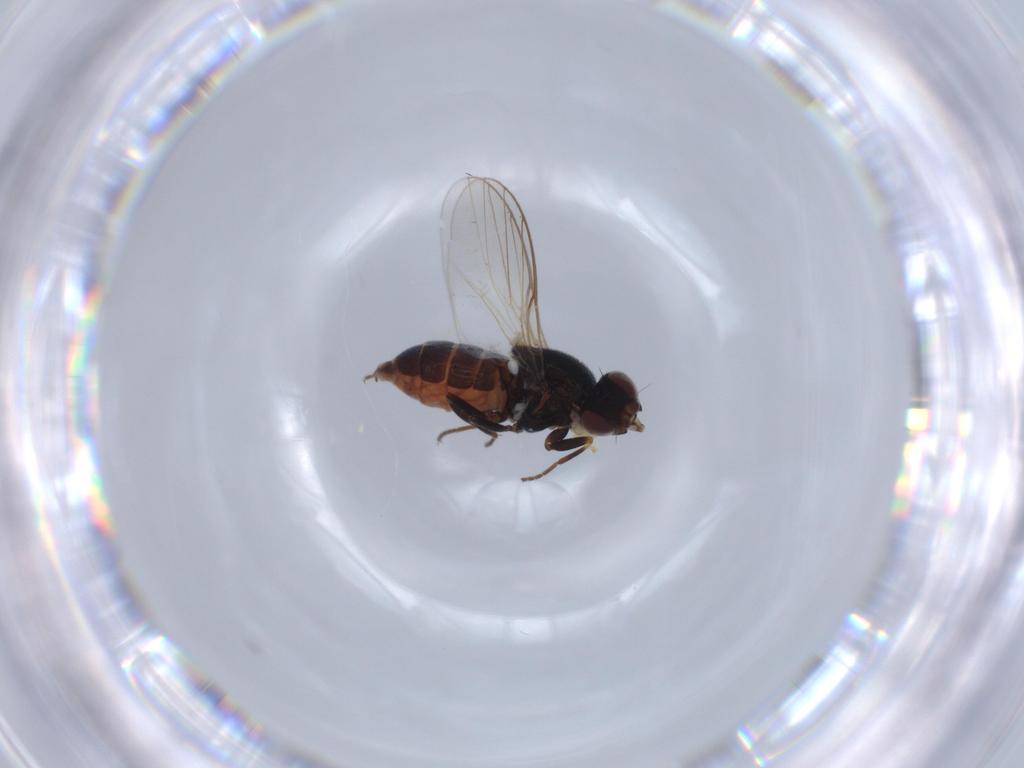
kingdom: Animalia
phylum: Arthropoda
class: Insecta
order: Diptera
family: Chloropidae
